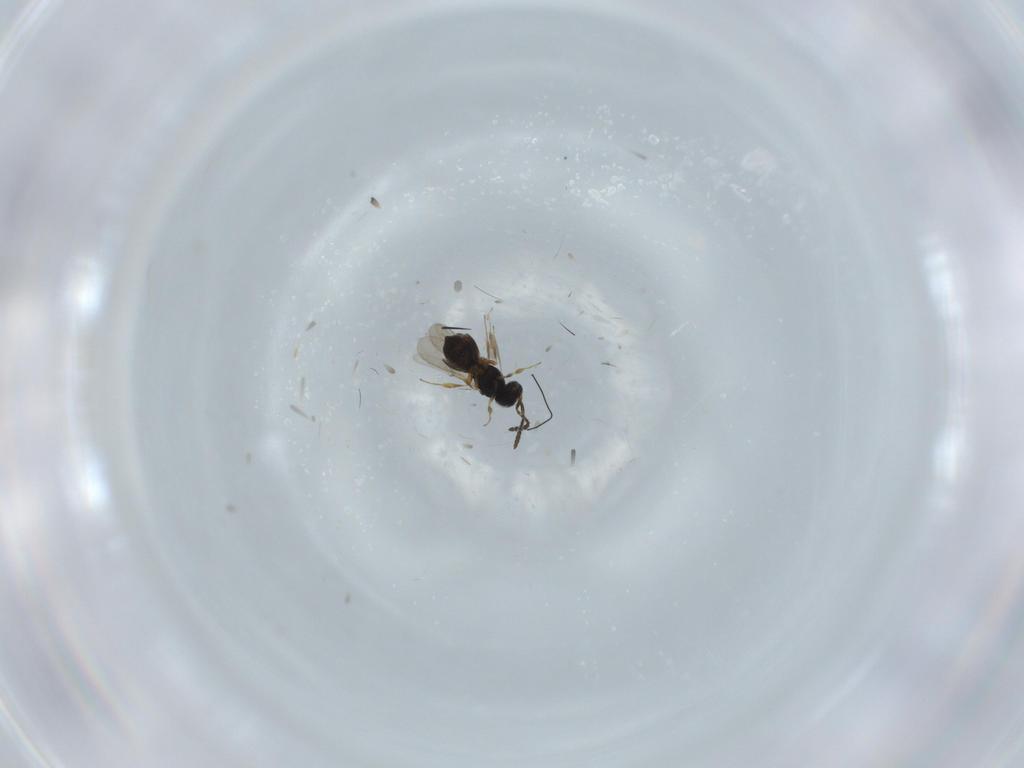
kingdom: Animalia
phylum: Arthropoda
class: Insecta
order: Hymenoptera
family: Scelionidae
